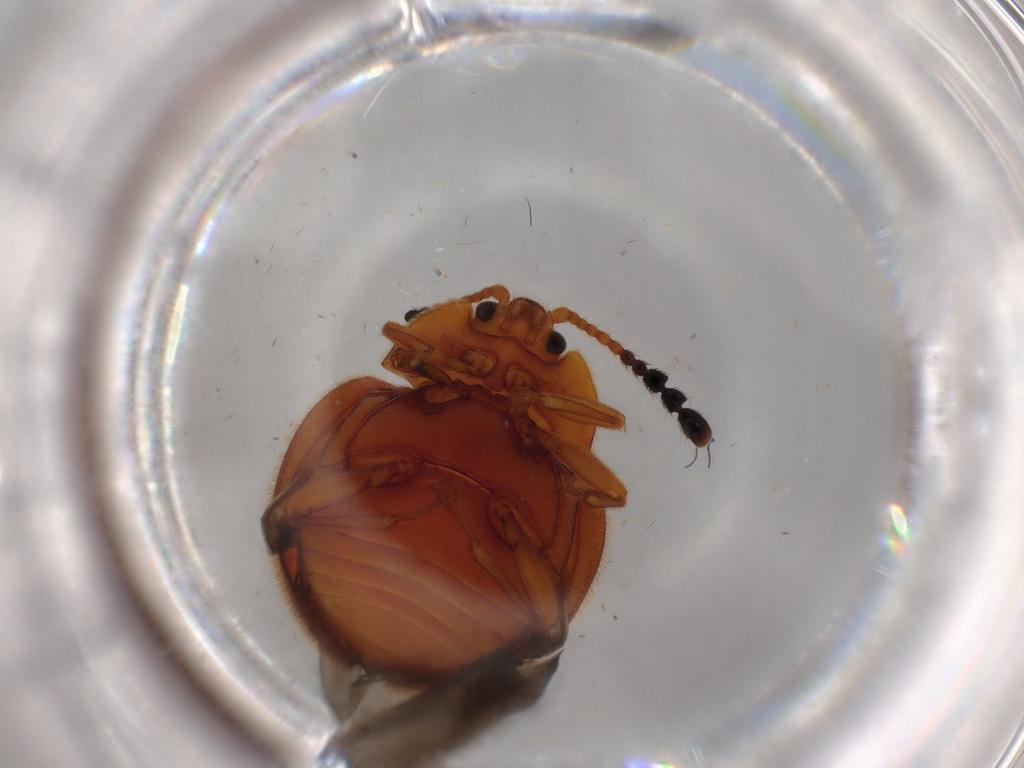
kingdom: Animalia
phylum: Arthropoda
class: Insecta
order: Coleoptera
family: Endomychidae
